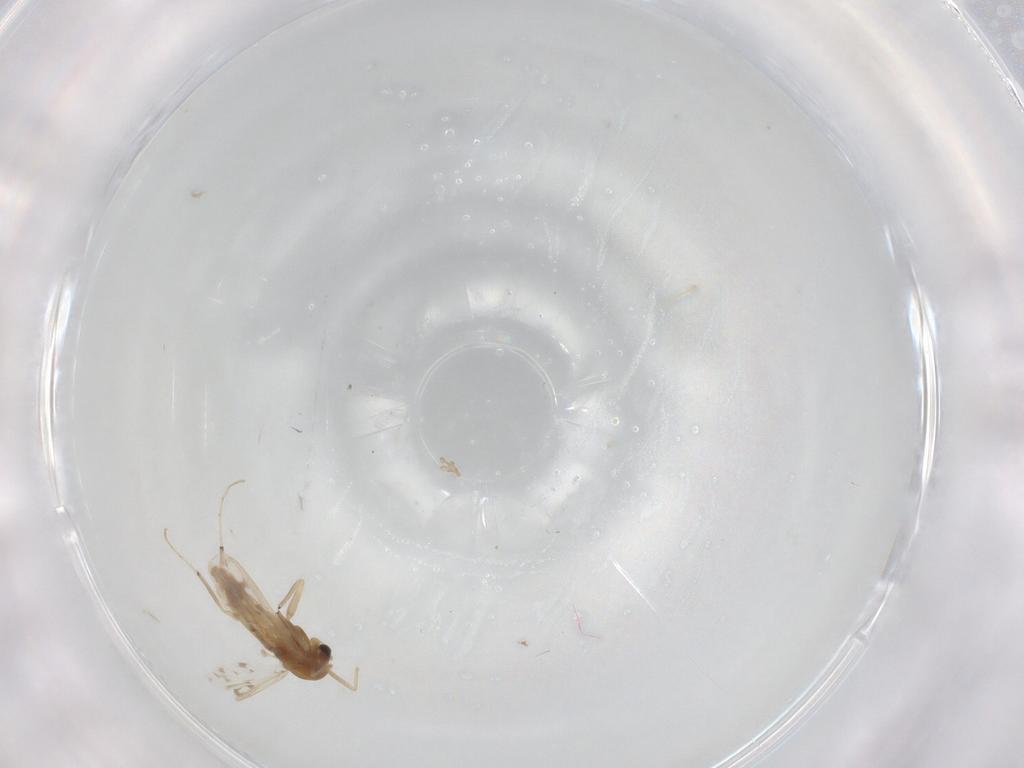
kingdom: Animalia
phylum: Arthropoda
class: Insecta
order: Diptera
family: Chironomidae
